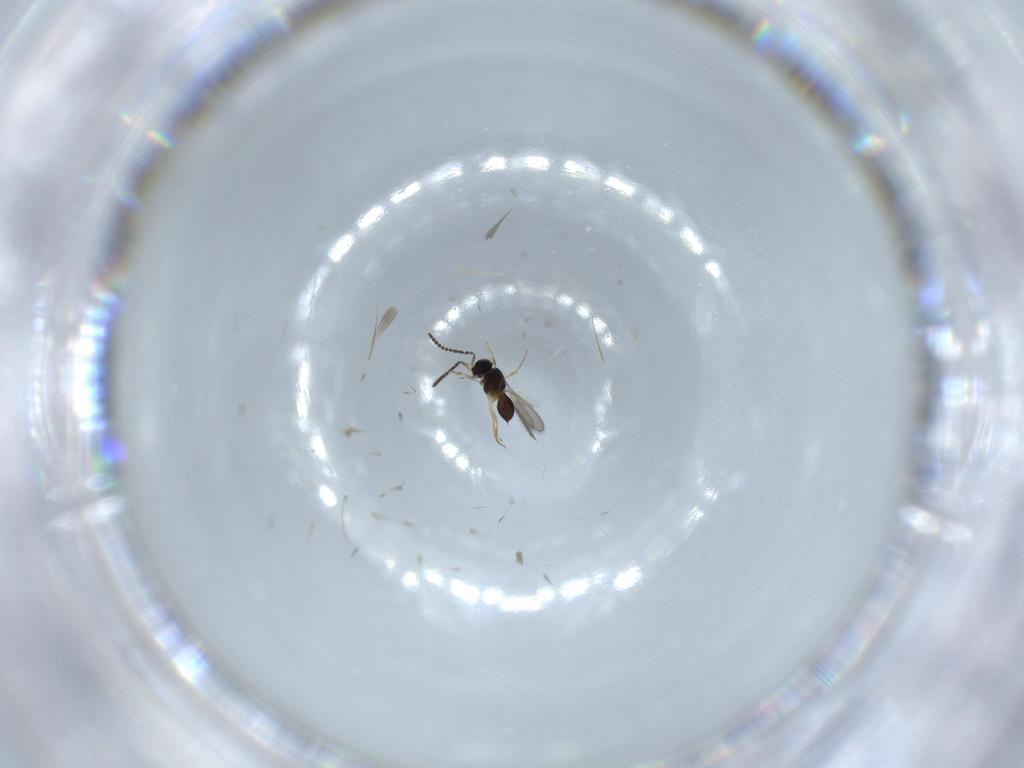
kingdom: Animalia
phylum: Arthropoda
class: Insecta
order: Hymenoptera
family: Scelionidae
